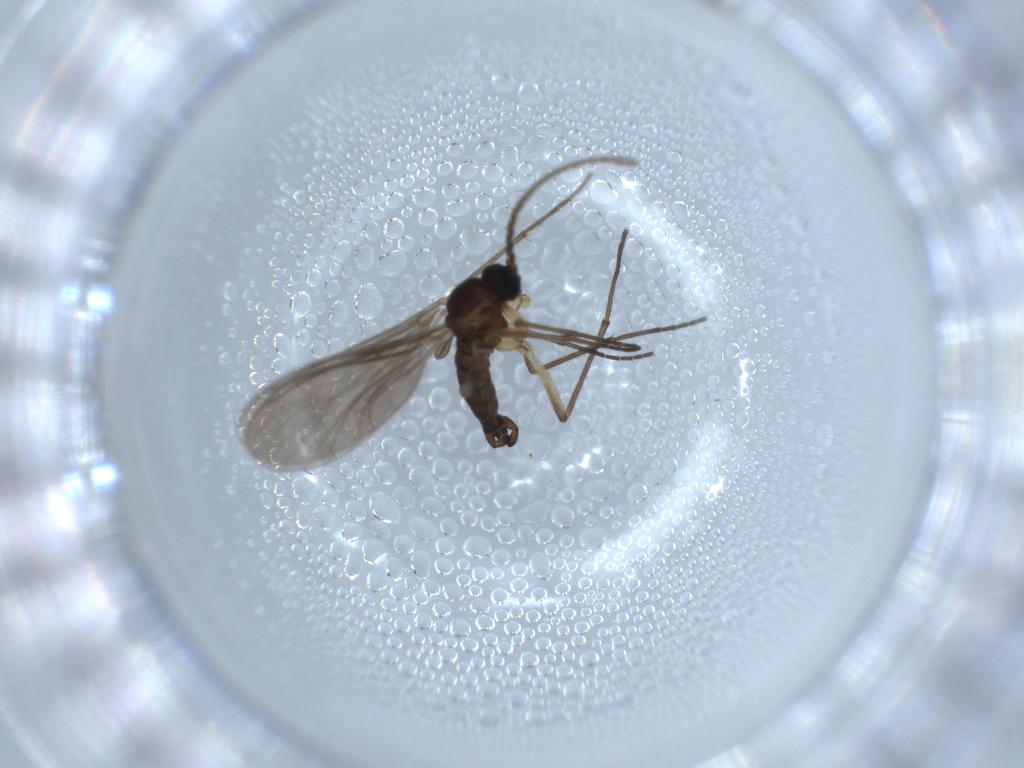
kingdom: Animalia
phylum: Arthropoda
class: Insecta
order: Diptera
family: Sciaridae
